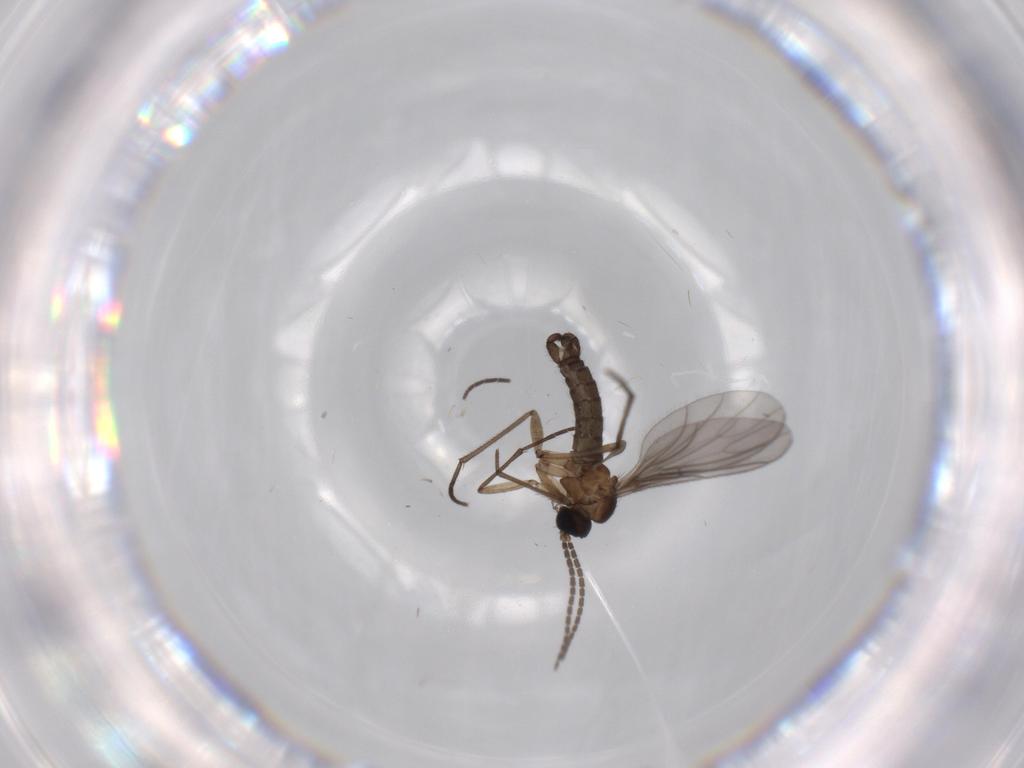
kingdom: Animalia
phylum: Arthropoda
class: Insecta
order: Diptera
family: Sciaridae
